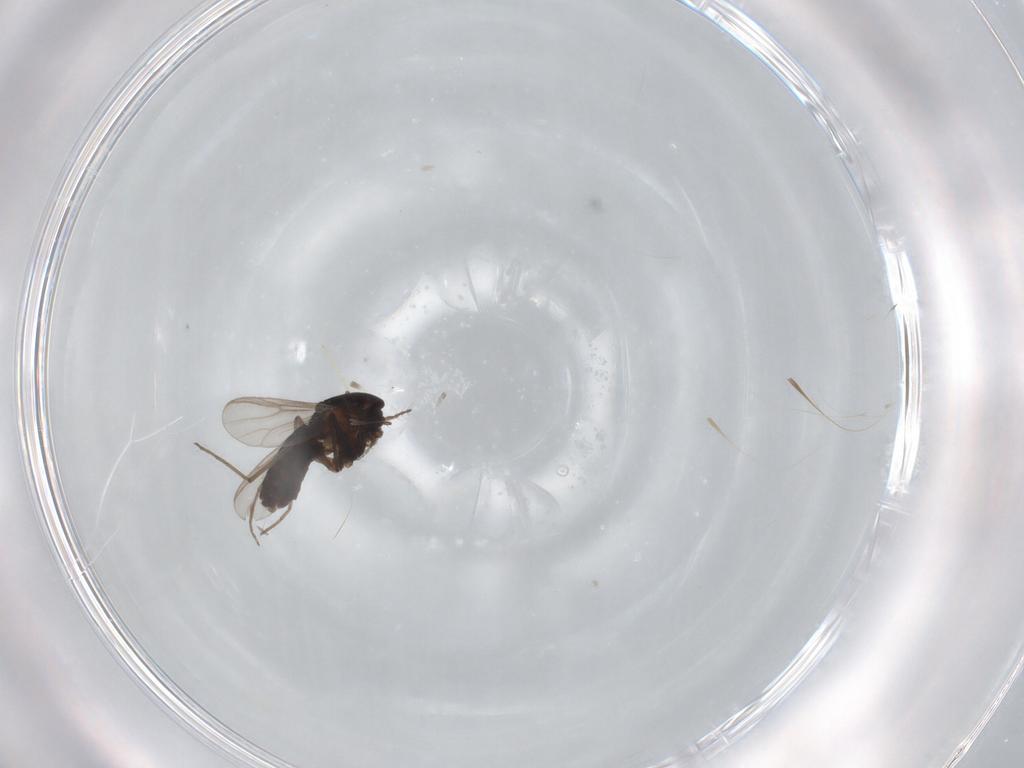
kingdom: Animalia
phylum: Arthropoda
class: Insecta
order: Diptera
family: Chironomidae
